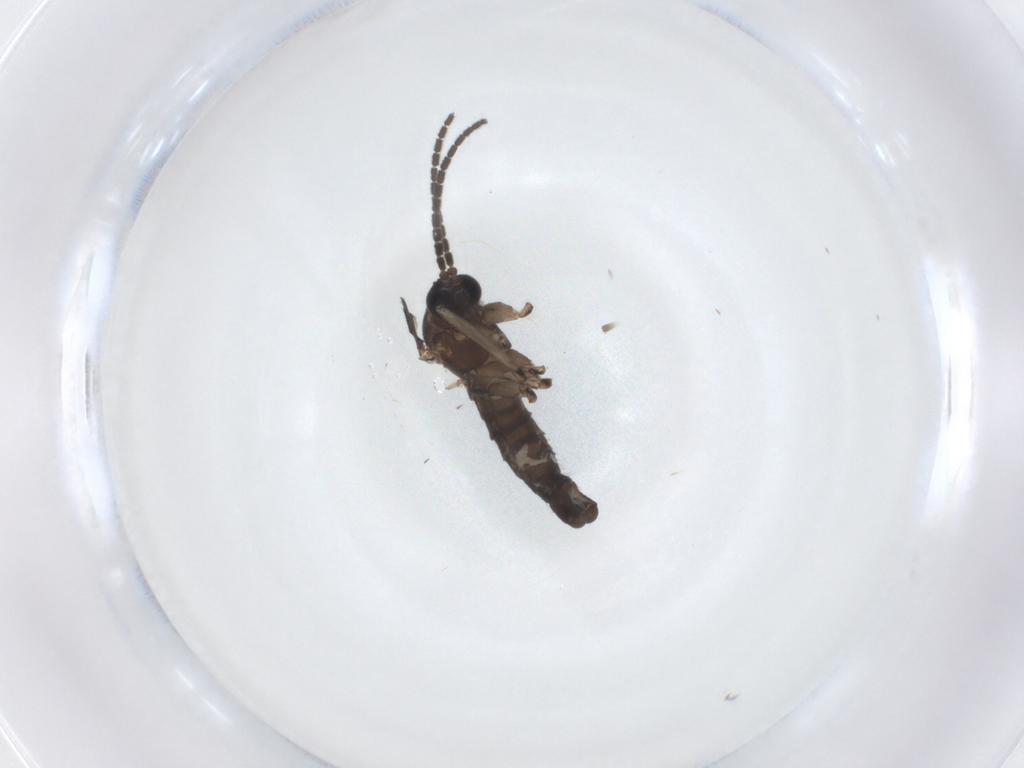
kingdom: Animalia
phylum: Arthropoda
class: Insecta
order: Diptera
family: Sciaridae
